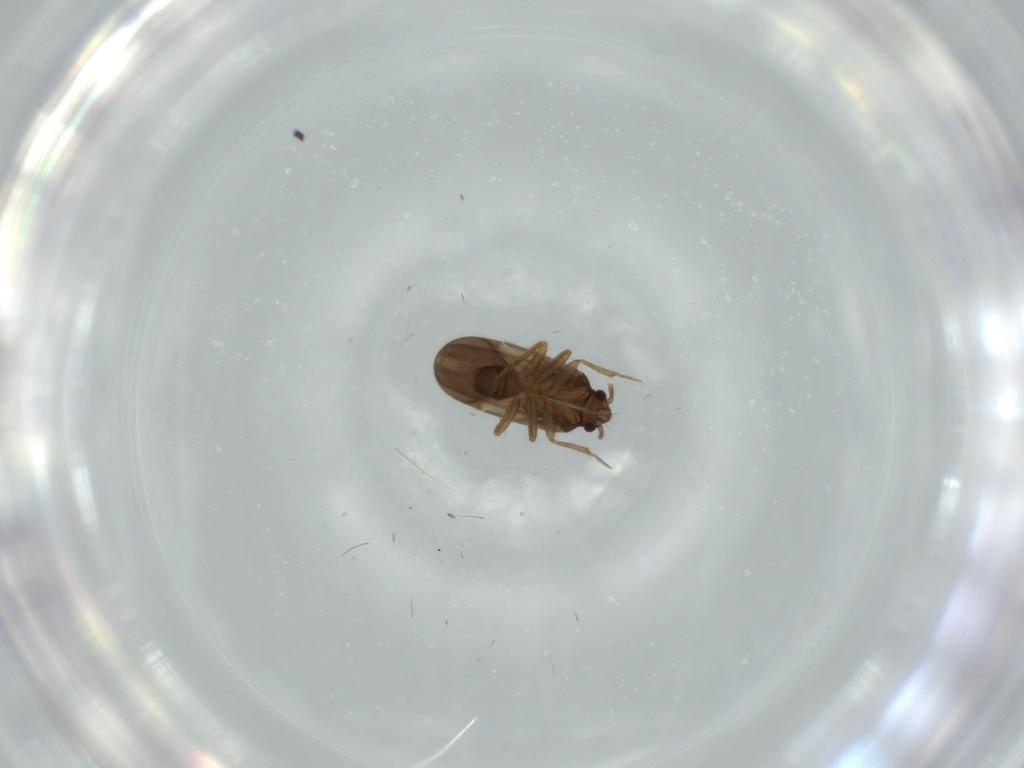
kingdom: Animalia
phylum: Arthropoda
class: Insecta
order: Hemiptera
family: Ceratocombidae
